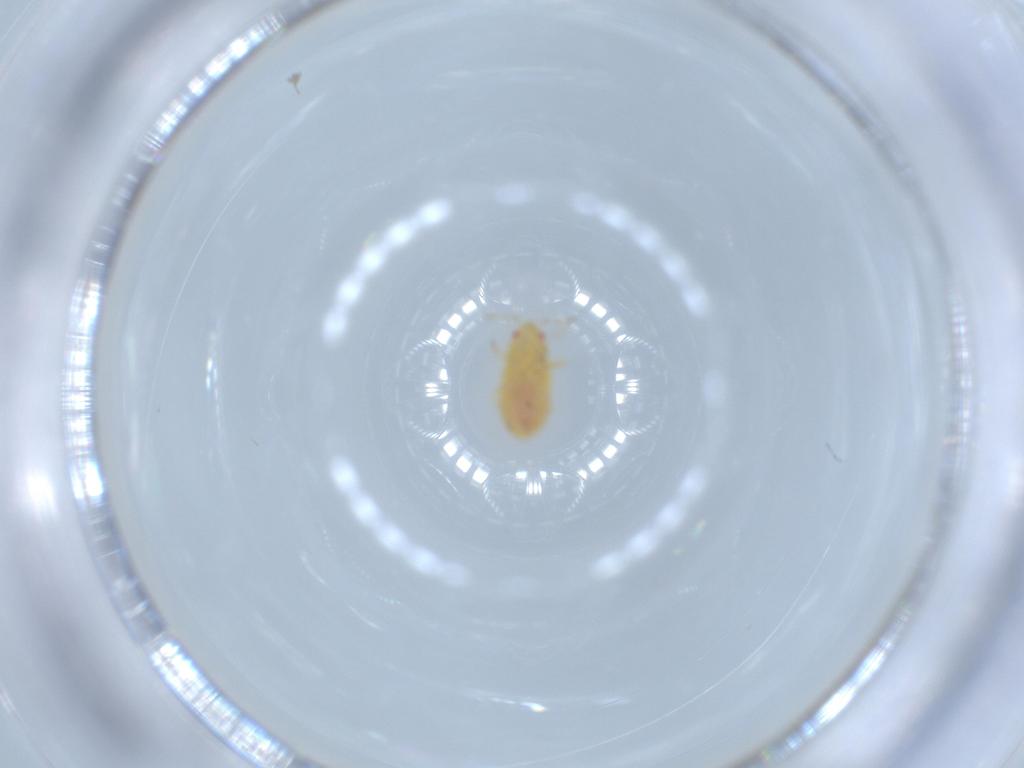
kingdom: Animalia
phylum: Arthropoda
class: Insecta
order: Hemiptera
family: Anthocoridae
